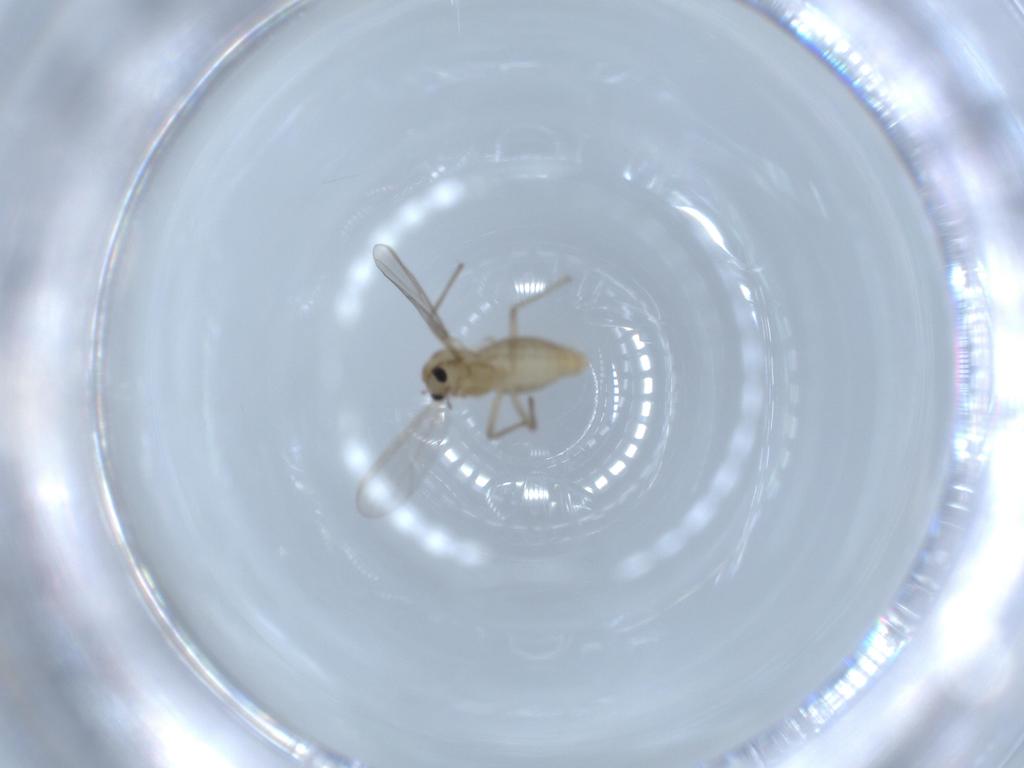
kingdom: Animalia
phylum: Arthropoda
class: Insecta
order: Diptera
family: Chironomidae
